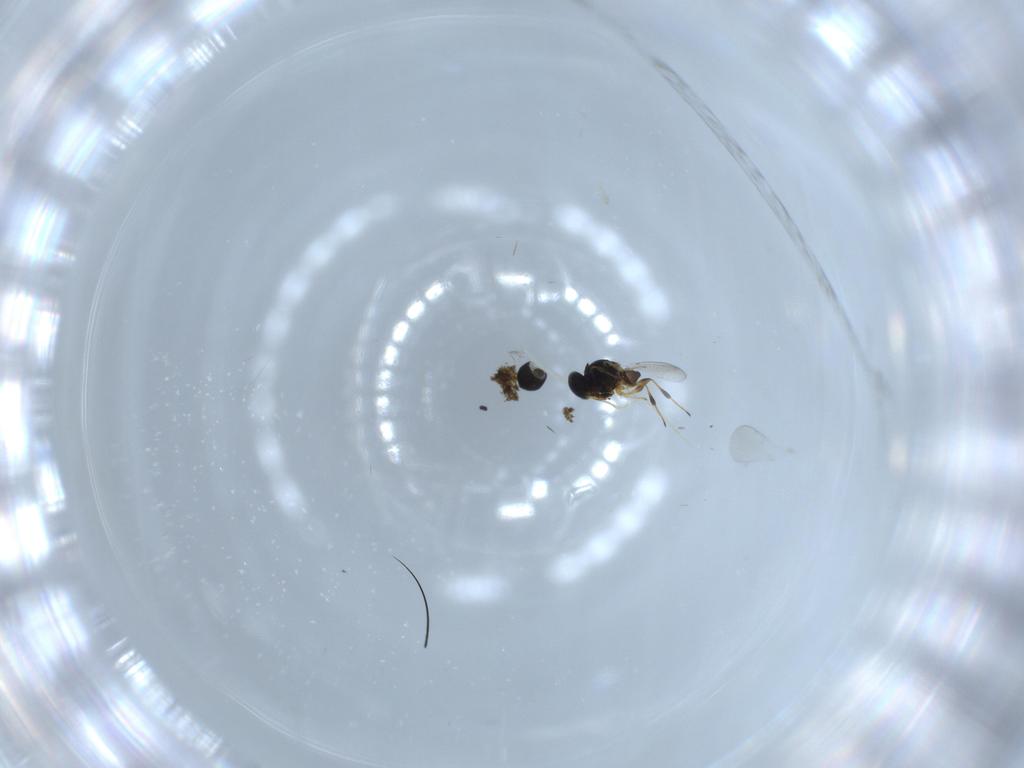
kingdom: Animalia
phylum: Arthropoda
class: Insecta
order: Hymenoptera
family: Platygastridae
